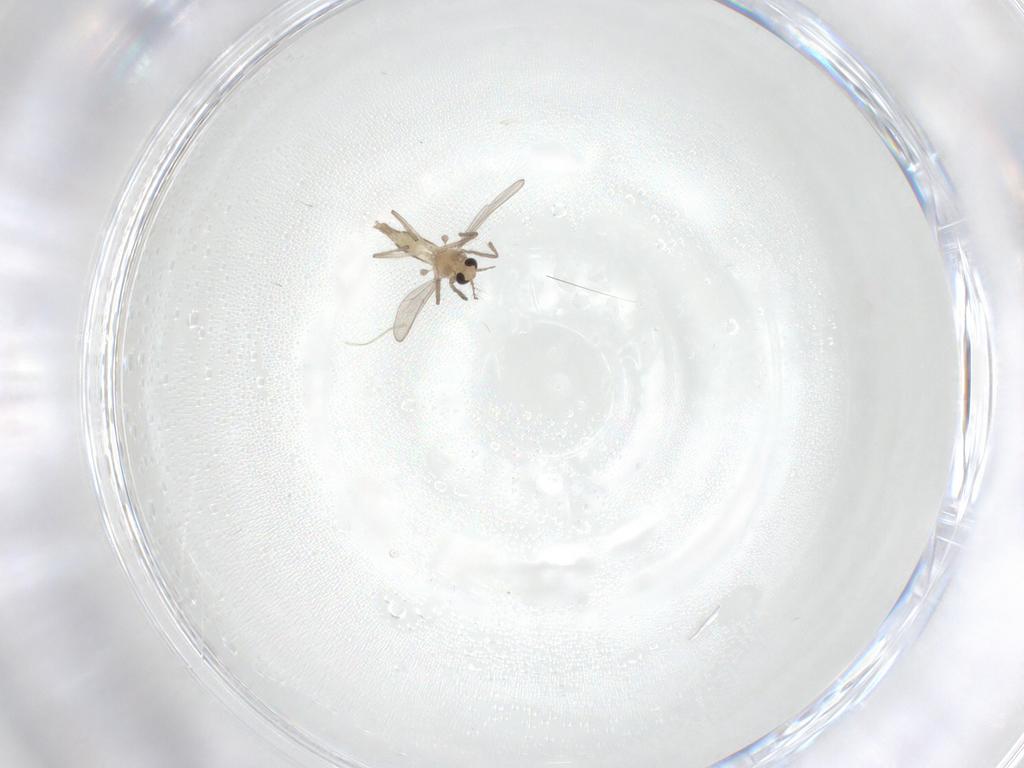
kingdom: Animalia
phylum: Arthropoda
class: Insecta
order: Diptera
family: Chironomidae
